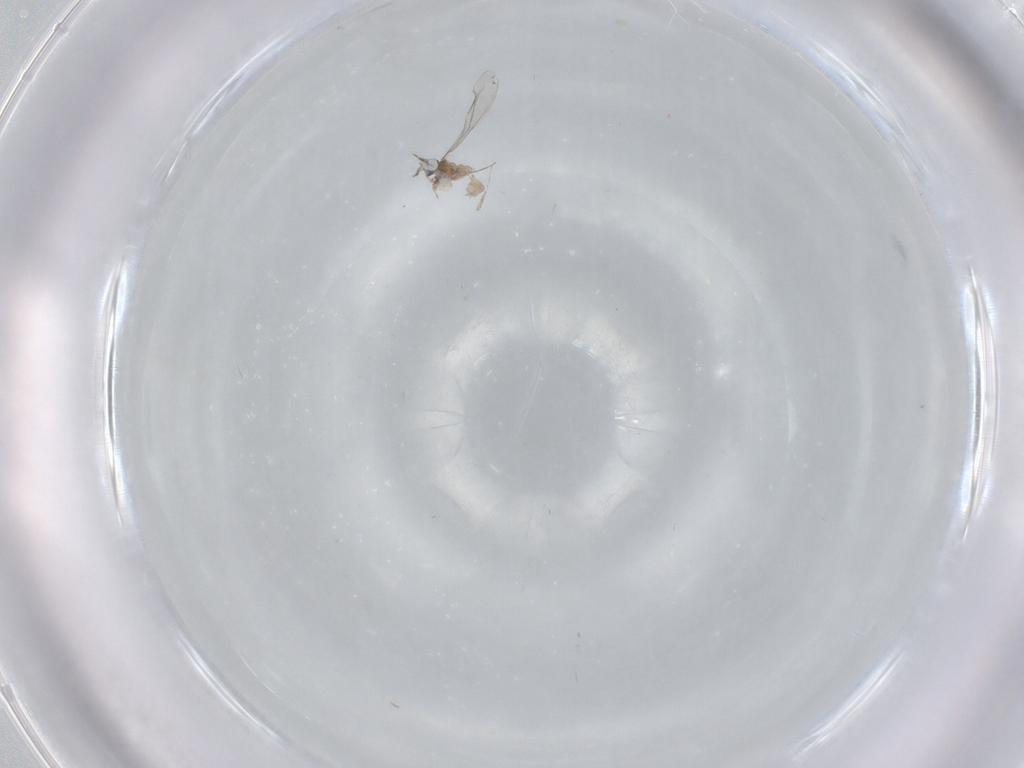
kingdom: Animalia
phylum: Arthropoda
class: Insecta
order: Diptera
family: Cecidomyiidae
